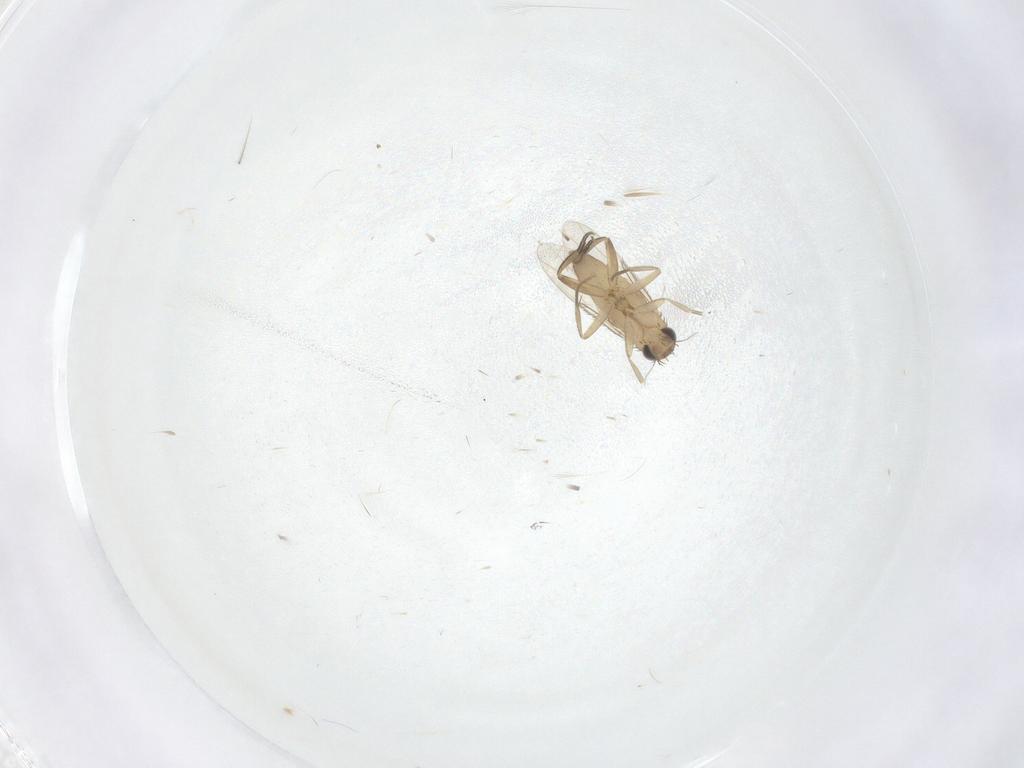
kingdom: Animalia
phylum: Arthropoda
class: Insecta
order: Diptera
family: Phoridae
